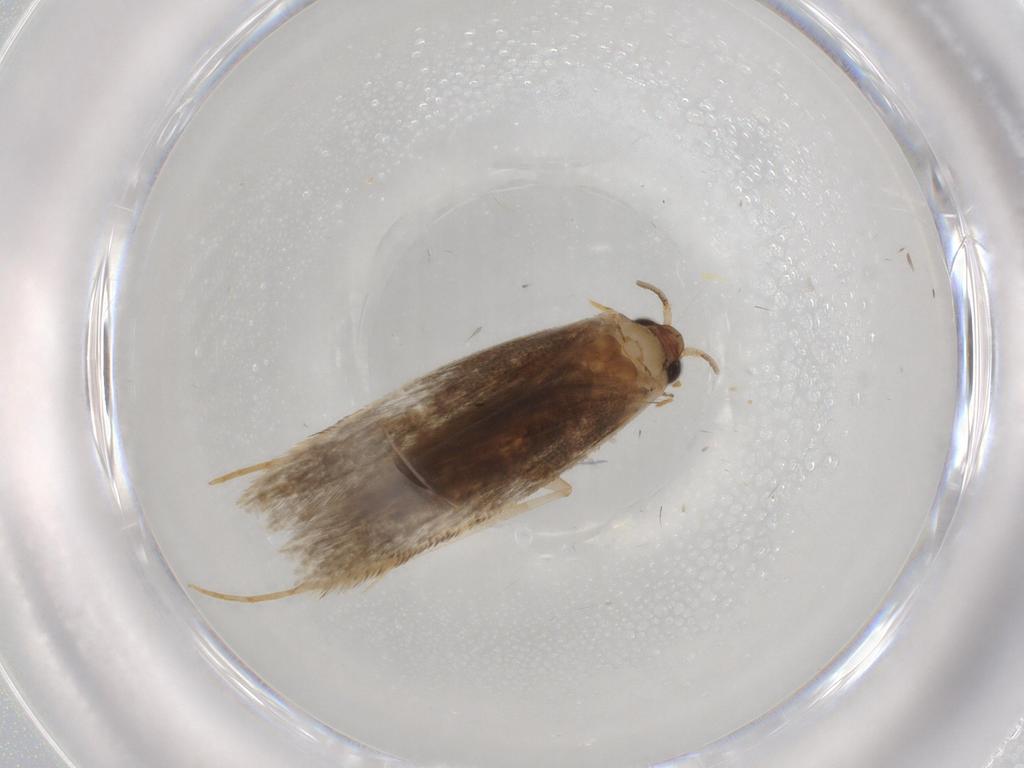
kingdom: Animalia
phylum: Arthropoda
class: Insecta
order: Lepidoptera
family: Tineidae
